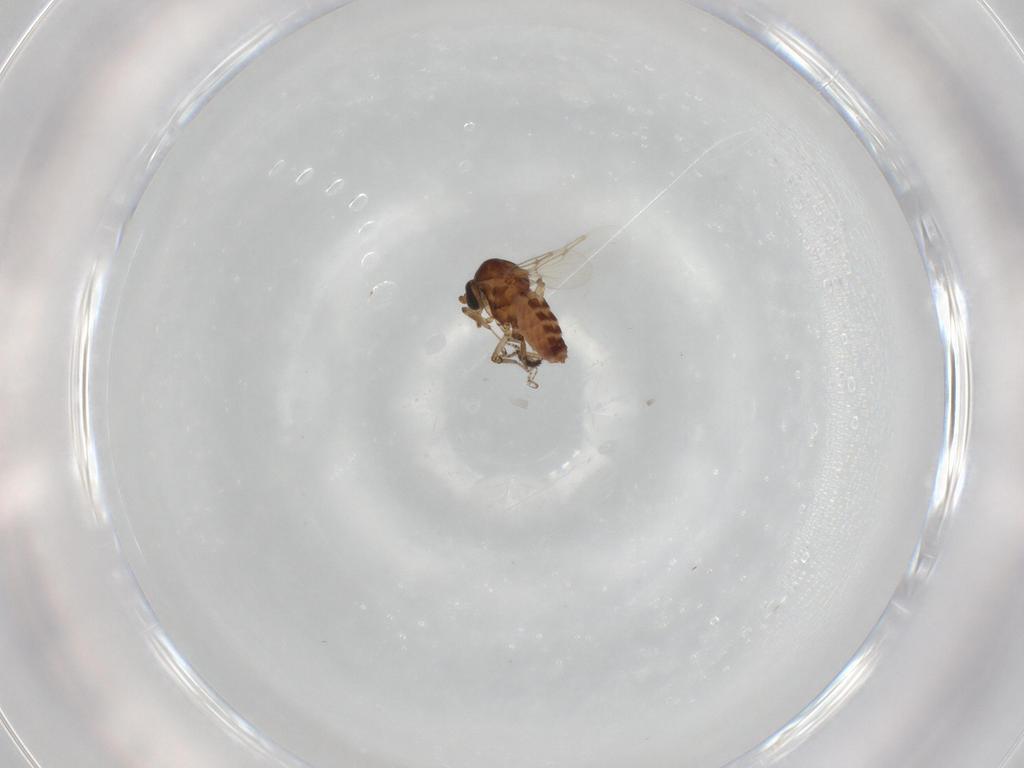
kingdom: Animalia
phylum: Arthropoda
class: Insecta
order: Diptera
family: Ceratopogonidae
